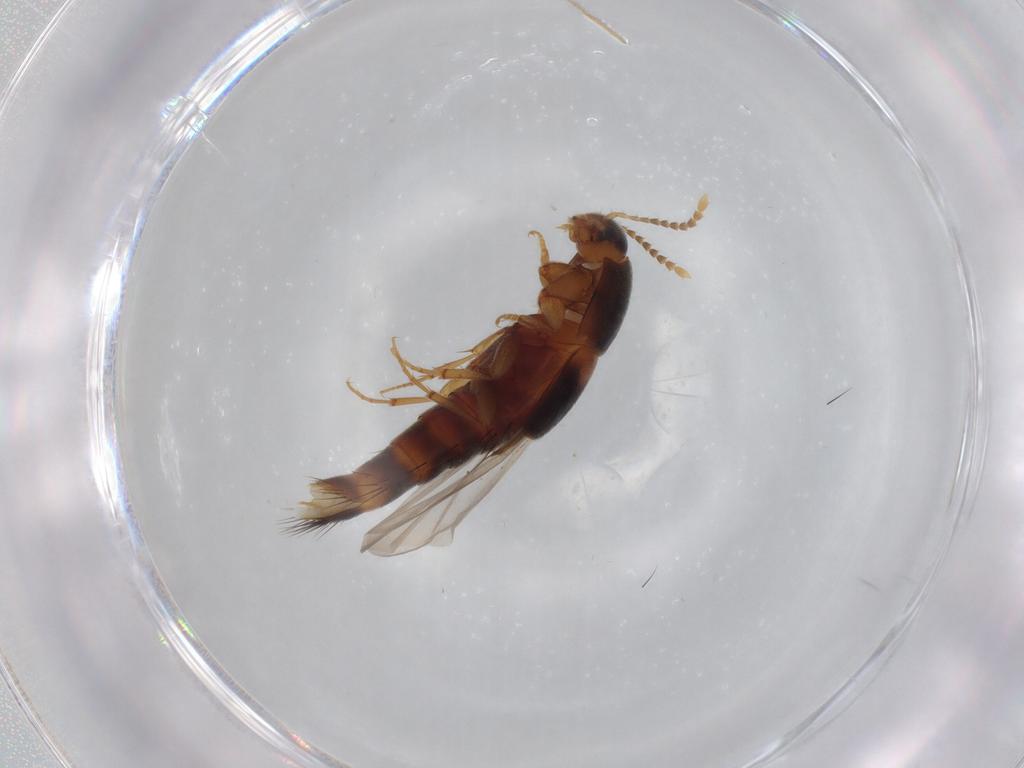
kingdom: Animalia
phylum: Arthropoda
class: Insecta
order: Coleoptera
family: Staphylinidae
